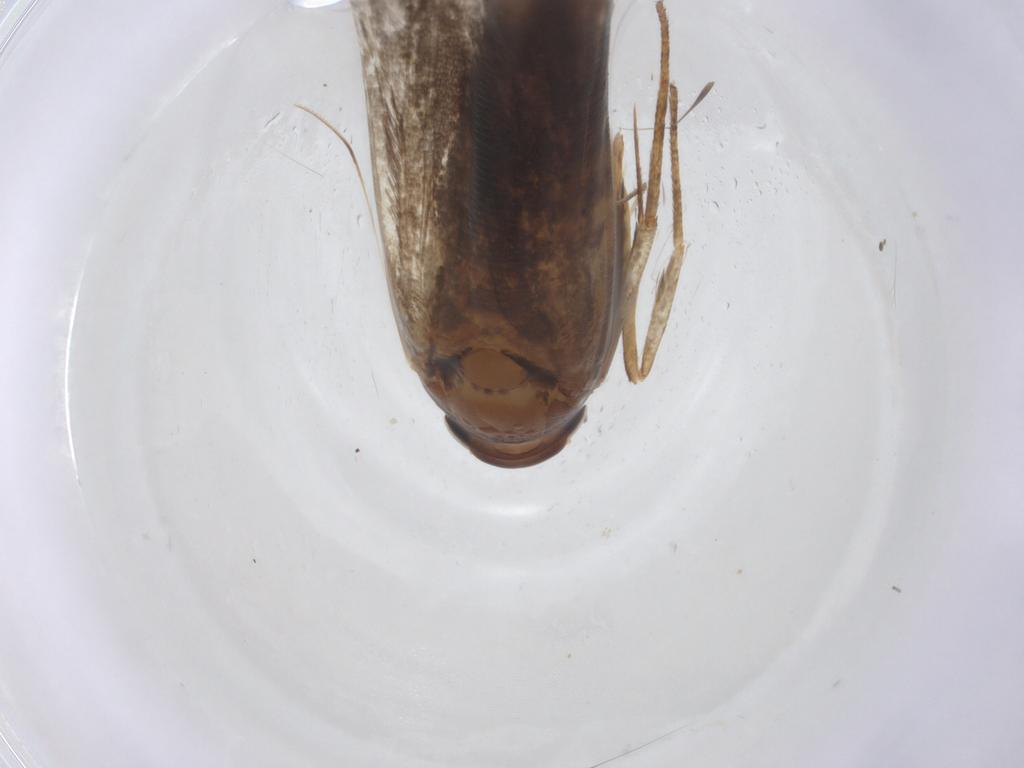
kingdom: Animalia
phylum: Arthropoda
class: Insecta
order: Lepidoptera
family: Gelechiidae
